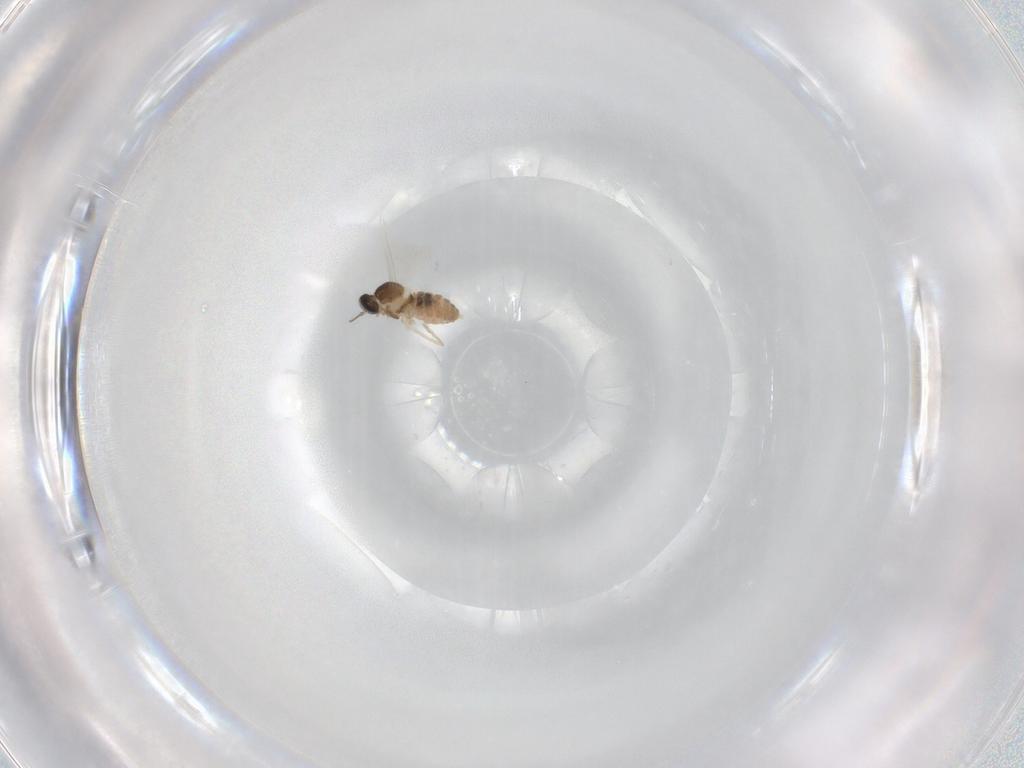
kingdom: Animalia
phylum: Arthropoda
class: Insecta
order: Diptera
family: Cecidomyiidae
